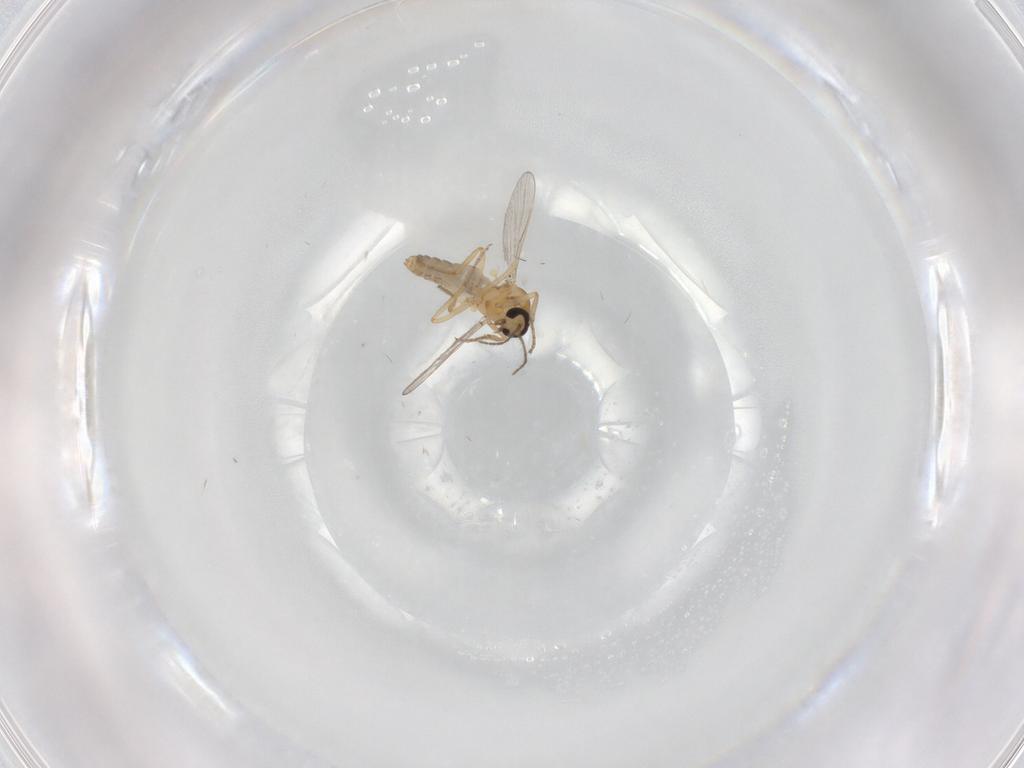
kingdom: Animalia
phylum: Arthropoda
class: Insecta
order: Diptera
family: Ceratopogonidae
